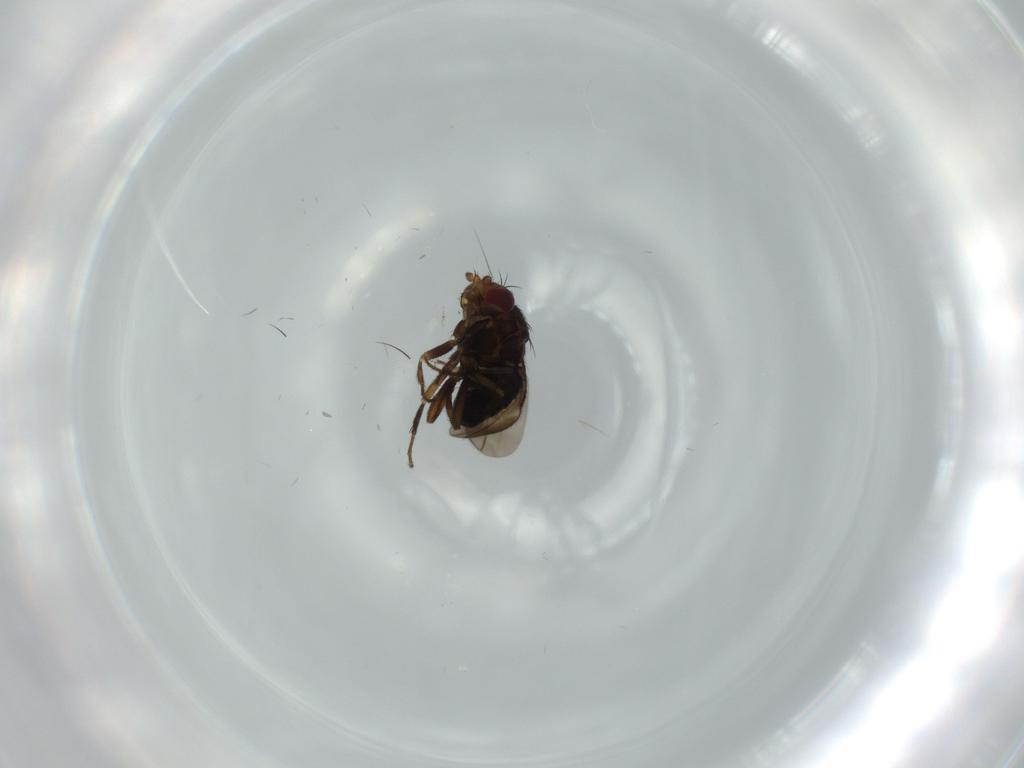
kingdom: Animalia
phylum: Arthropoda
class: Insecta
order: Diptera
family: Sphaeroceridae
